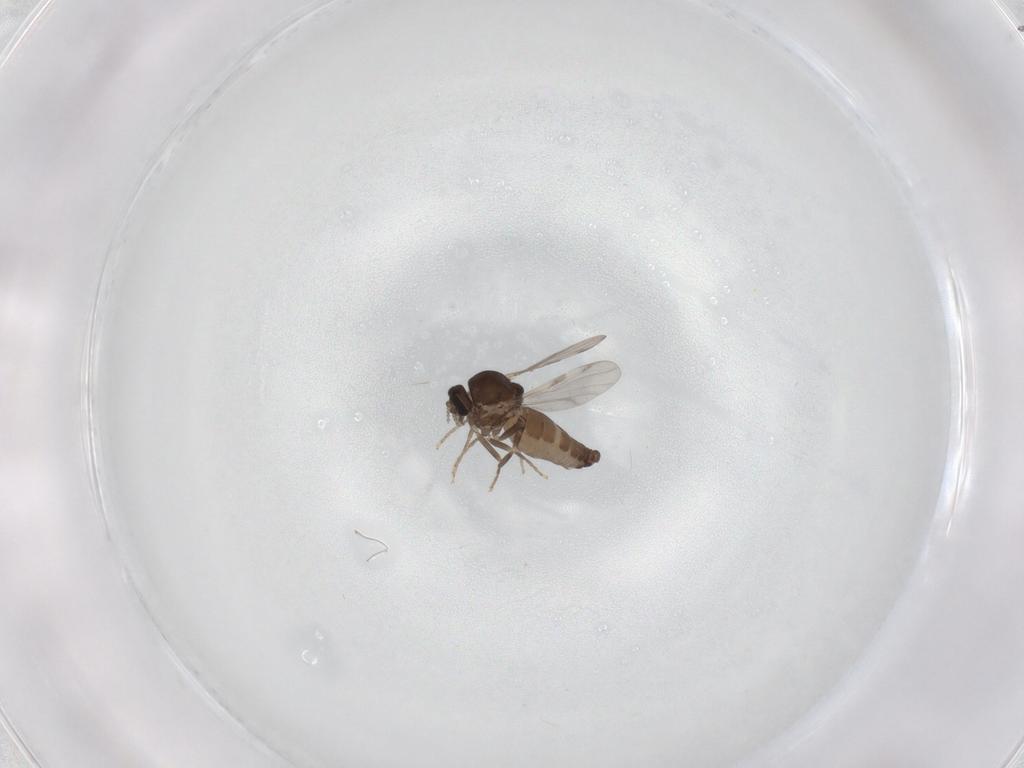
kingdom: Animalia
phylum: Arthropoda
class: Insecta
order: Diptera
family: Ceratopogonidae
